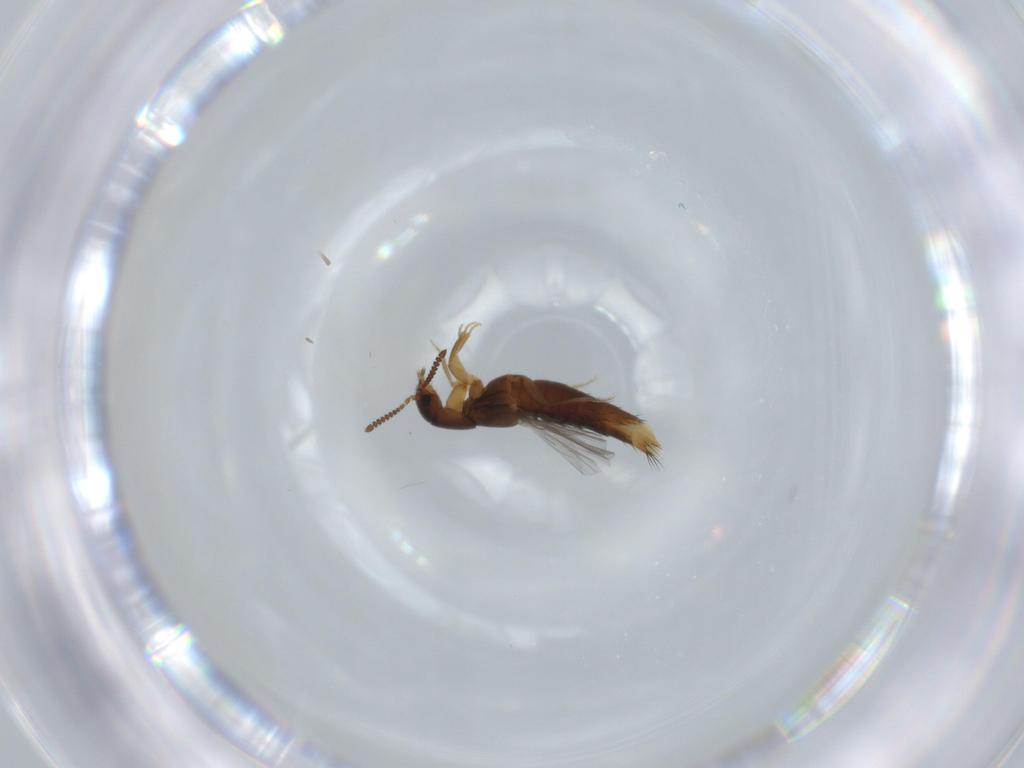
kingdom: Animalia
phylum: Arthropoda
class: Insecta
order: Coleoptera
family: Staphylinidae
